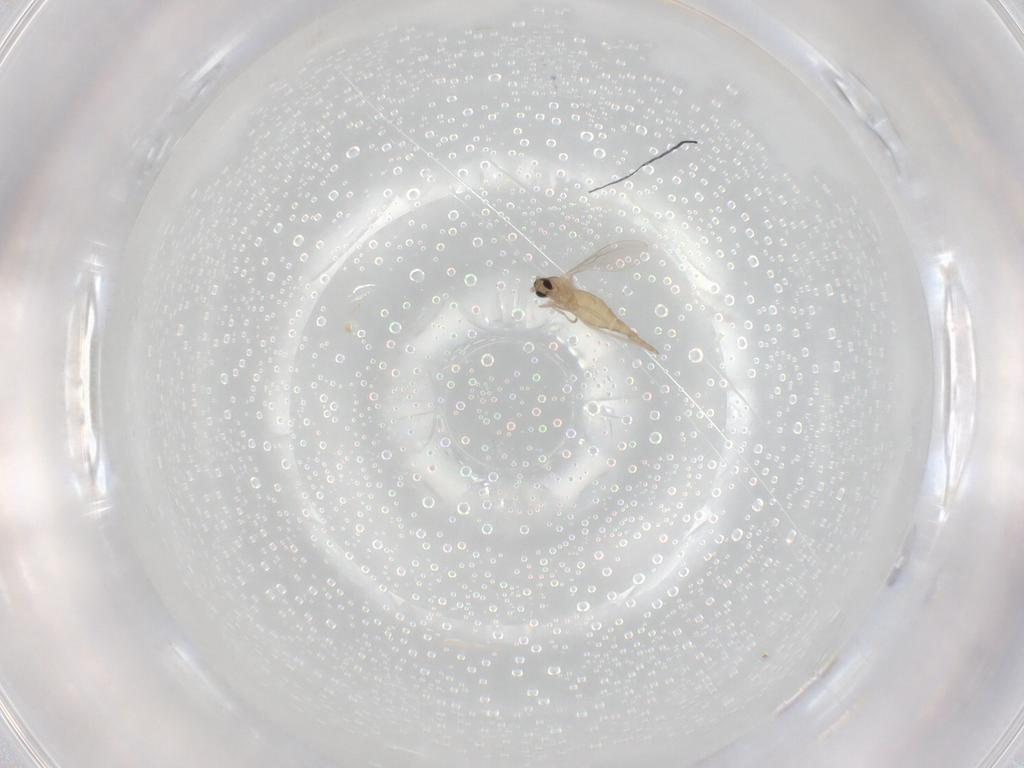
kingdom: Animalia
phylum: Arthropoda
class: Insecta
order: Diptera
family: Cecidomyiidae
